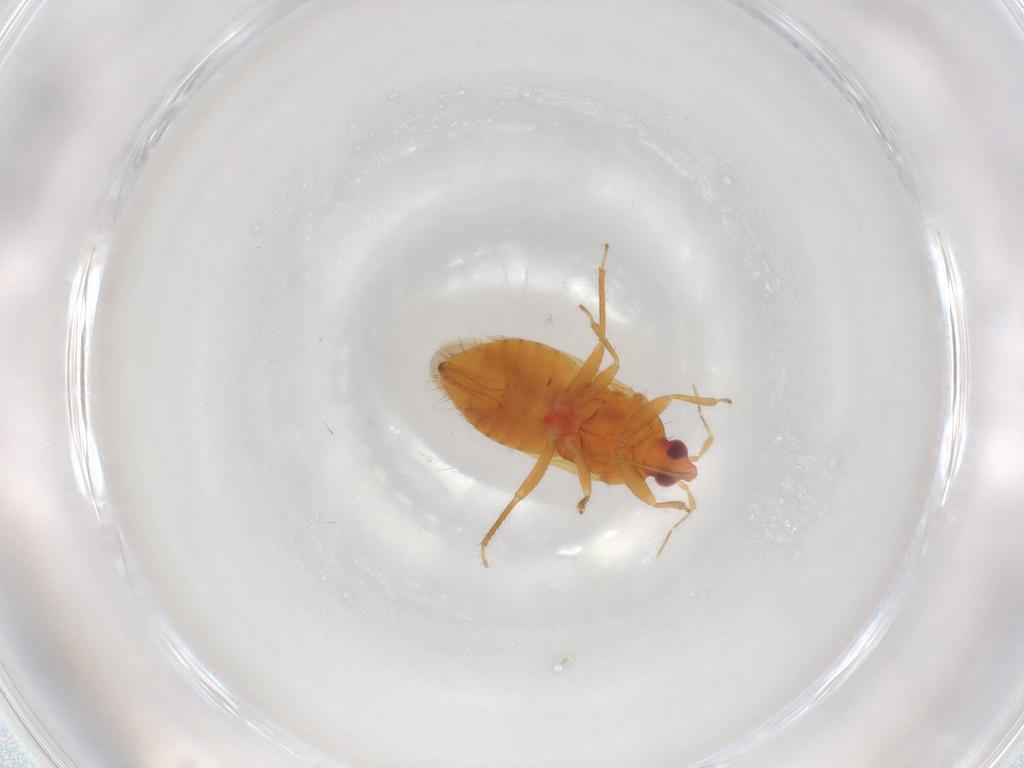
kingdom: Animalia
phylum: Arthropoda
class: Insecta
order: Hemiptera
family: Anthocoridae
